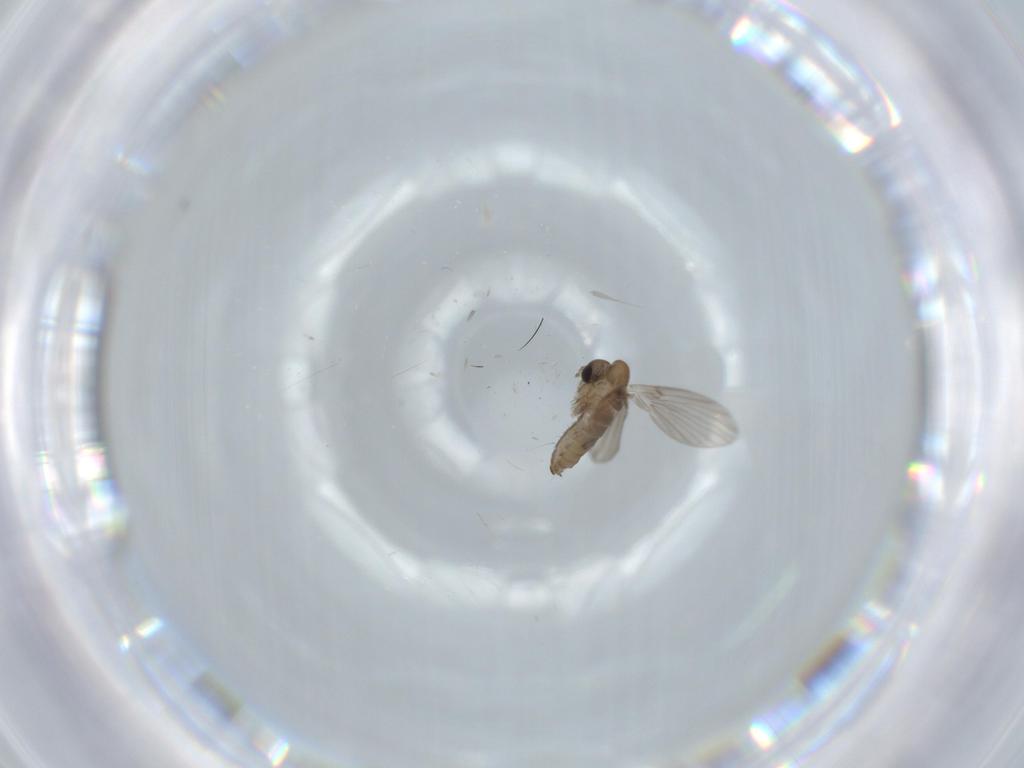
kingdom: Animalia
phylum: Arthropoda
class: Insecta
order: Diptera
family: Psychodidae
